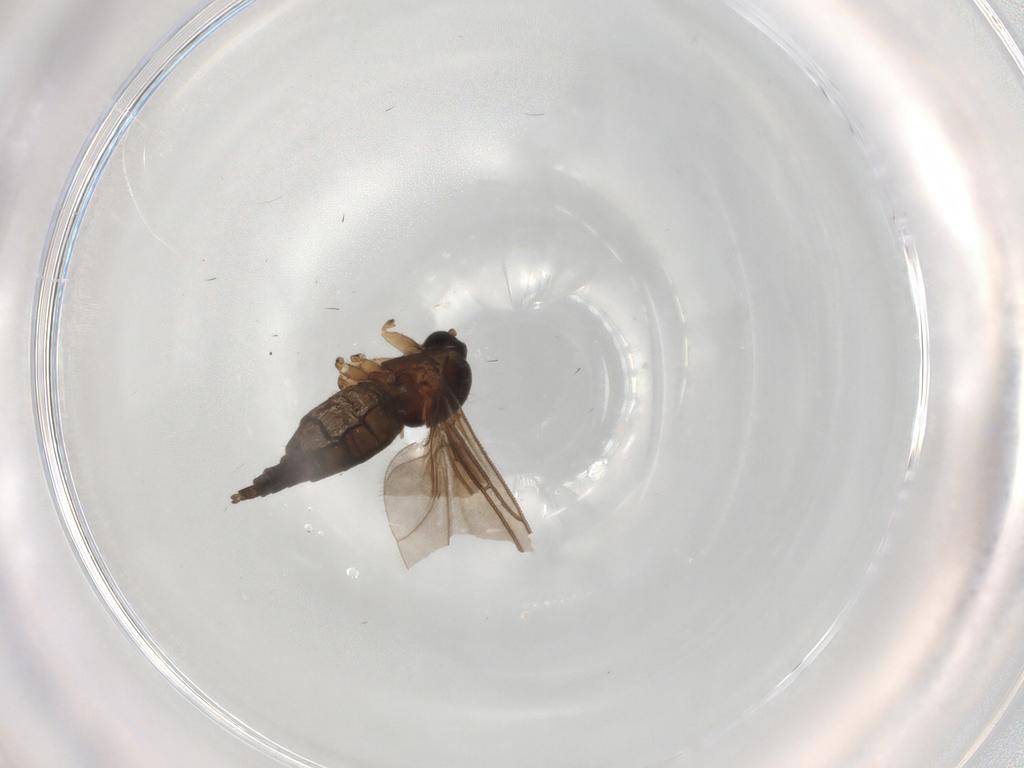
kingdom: Animalia
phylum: Arthropoda
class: Insecta
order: Diptera
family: Sciaridae
